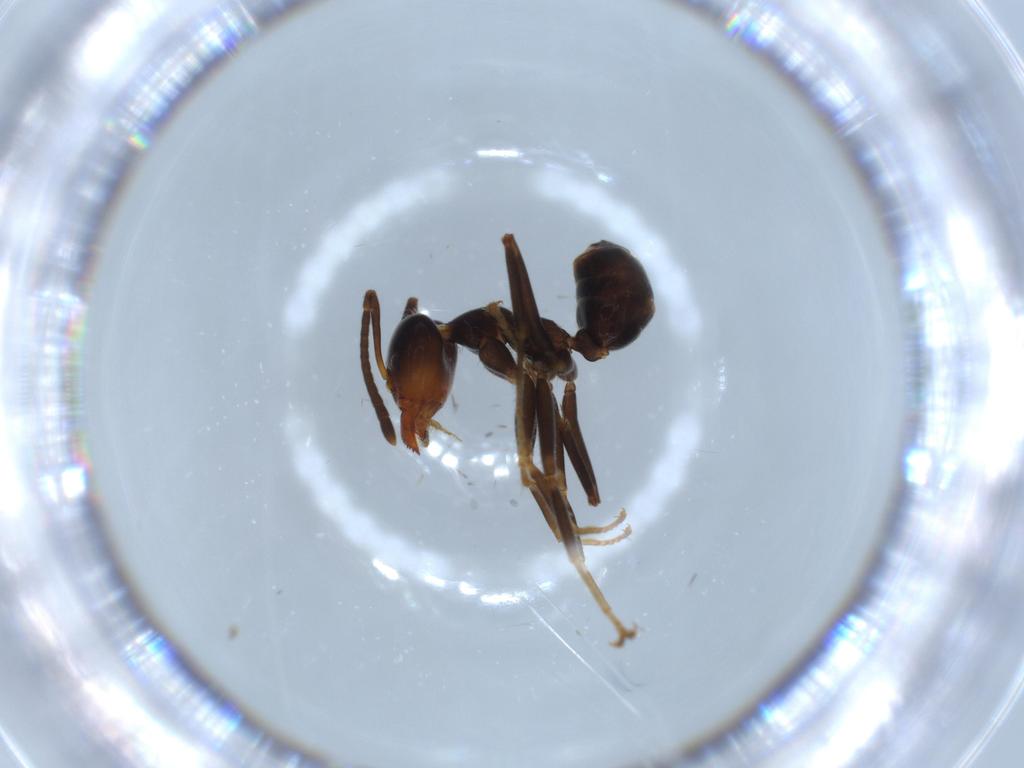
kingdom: Animalia
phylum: Arthropoda
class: Insecta
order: Hymenoptera
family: Formicidae
